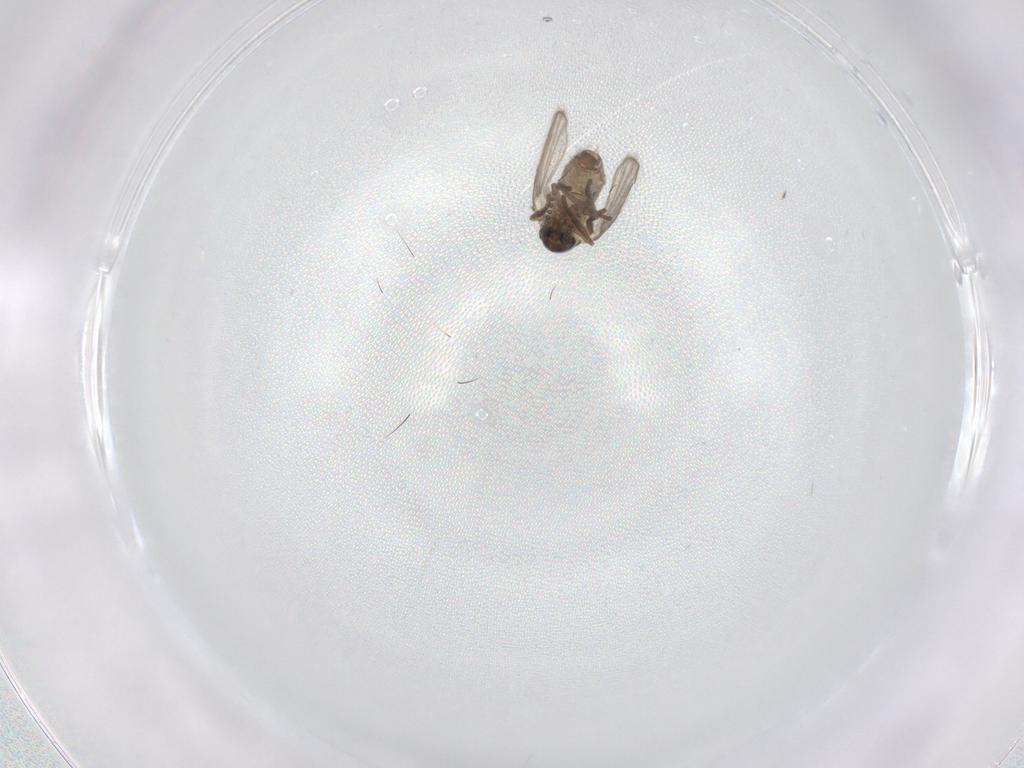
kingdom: Animalia
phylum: Arthropoda
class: Insecta
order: Diptera
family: Psychodidae
